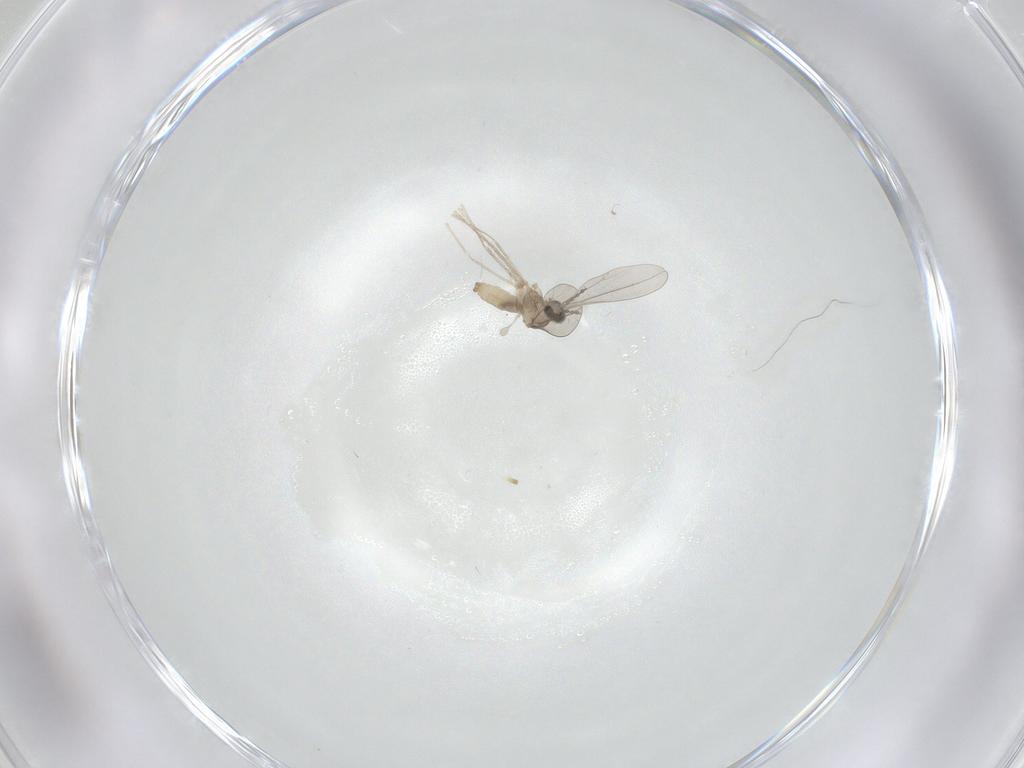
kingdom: Animalia
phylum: Arthropoda
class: Insecta
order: Diptera
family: Cecidomyiidae
